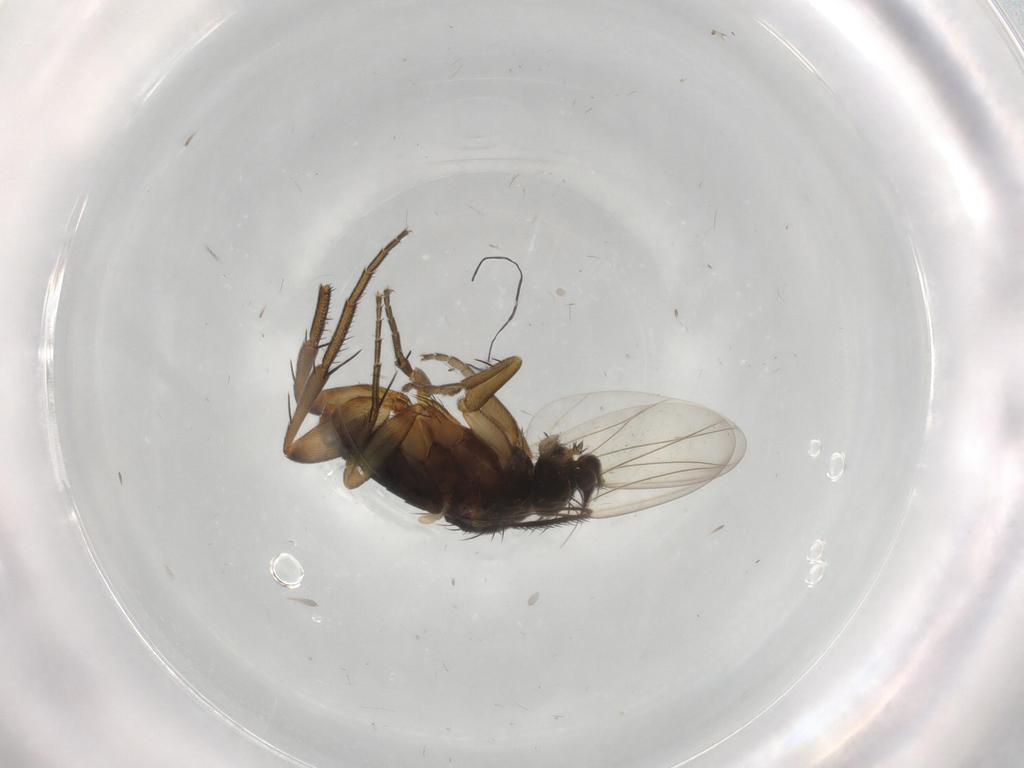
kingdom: Animalia
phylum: Arthropoda
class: Insecta
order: Diptera
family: Phoridae
